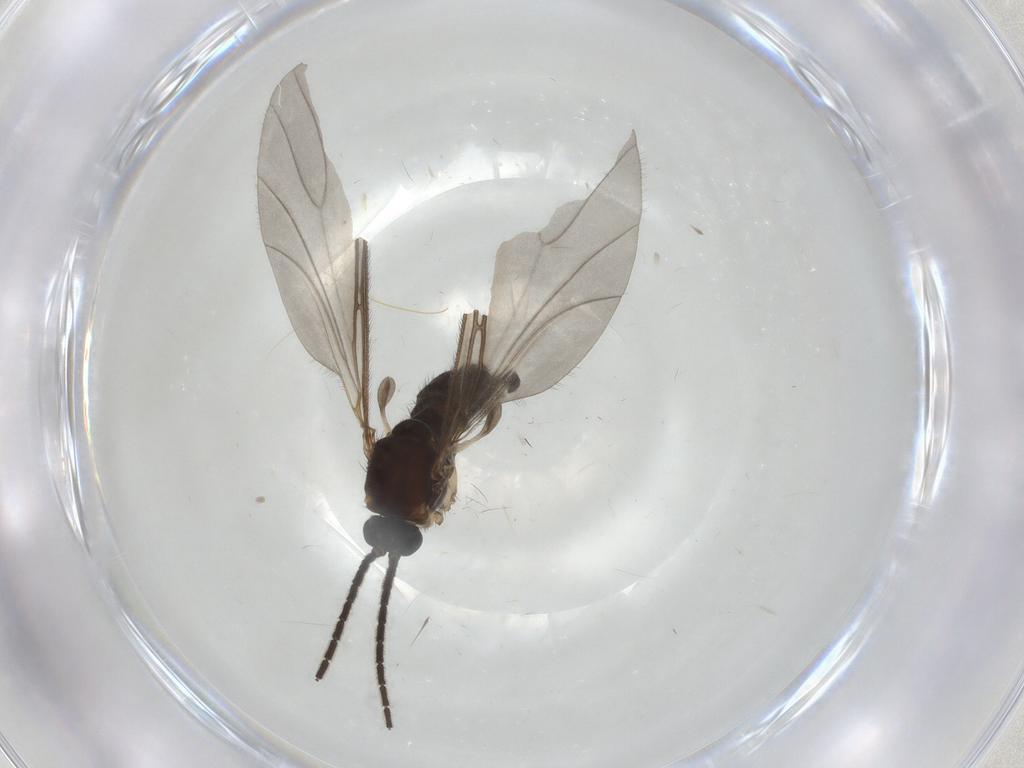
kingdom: Animalia
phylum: Arthropoda
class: Insecta
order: Diptera
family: Sciaridae
